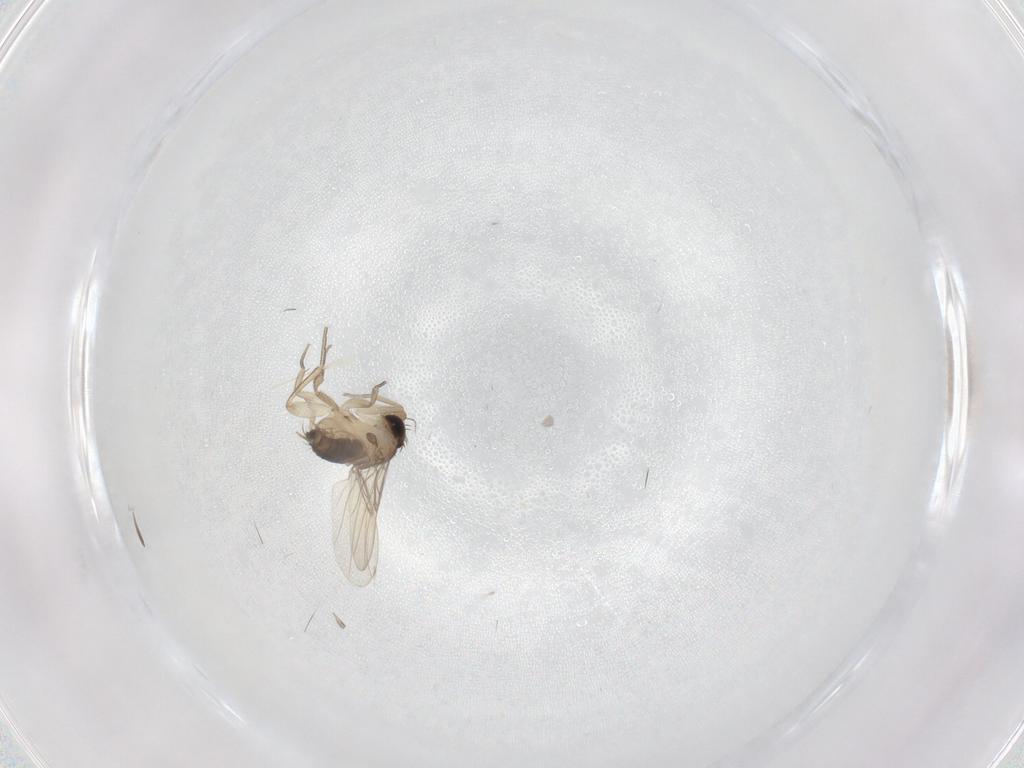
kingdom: Animalia
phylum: Arthropoda
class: Insecta
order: Diptera
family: Phoridae
